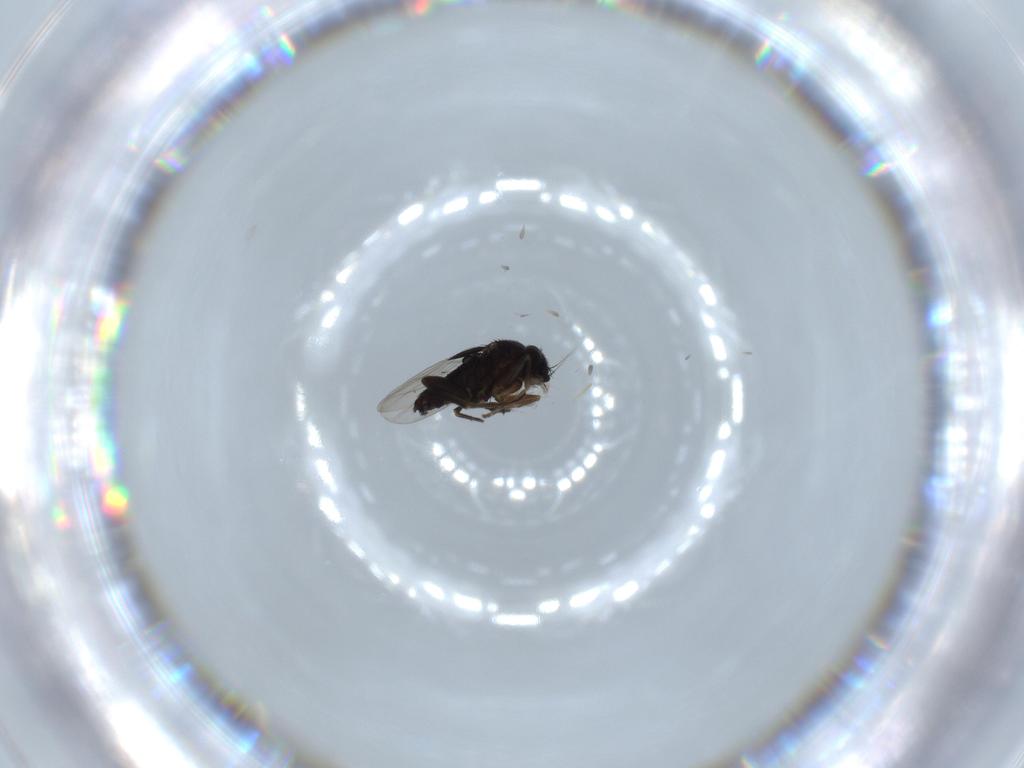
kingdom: Animalia
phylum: Arthropoda
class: Insecta
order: Diptera
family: Phoridae
